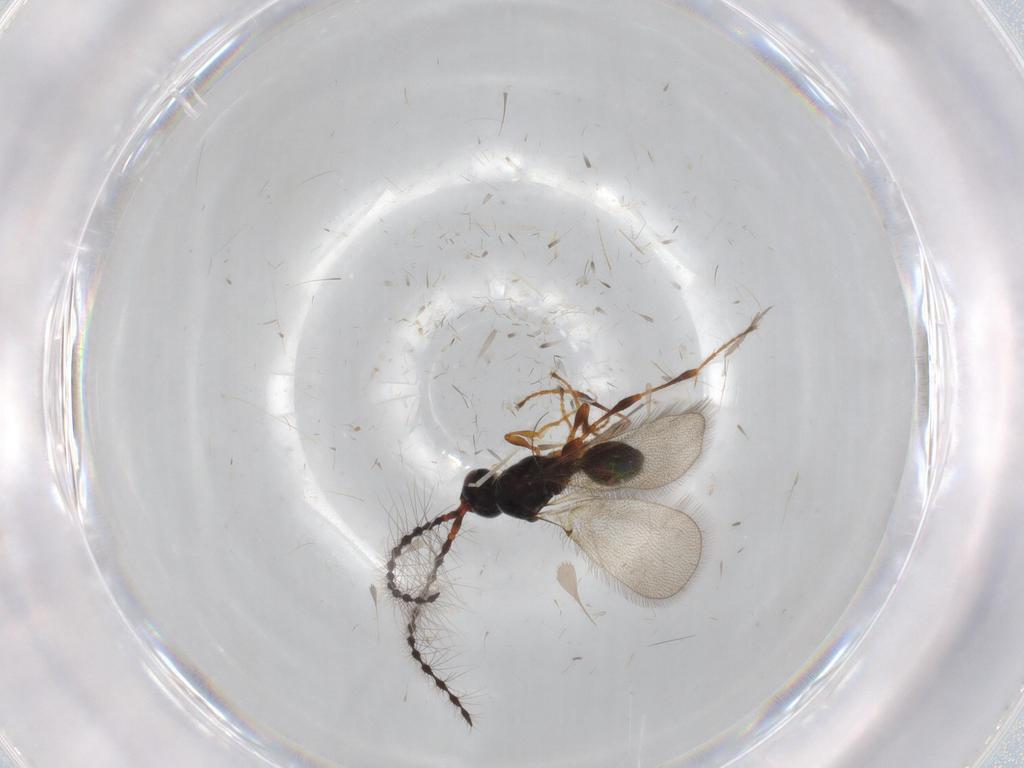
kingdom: Animalia
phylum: Arthropoda
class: Insecta
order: Hymenoptera
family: Diapriidae
